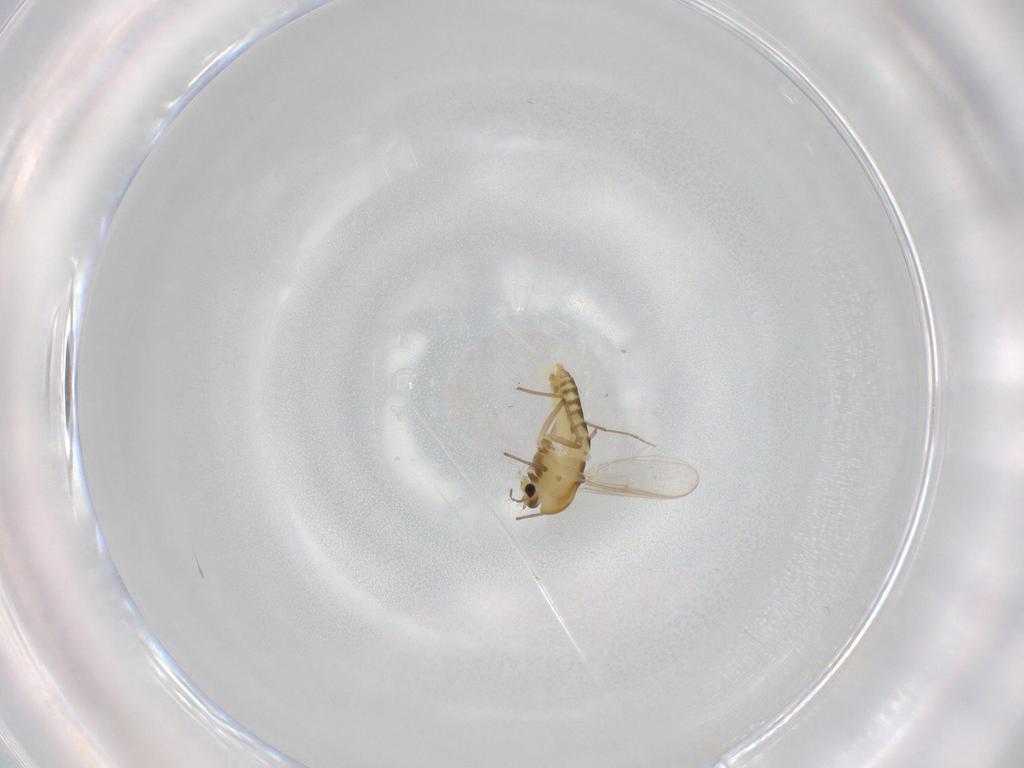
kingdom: Animalia
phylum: Arthropoda
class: Insecta
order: Diptera
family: Chironomidae
